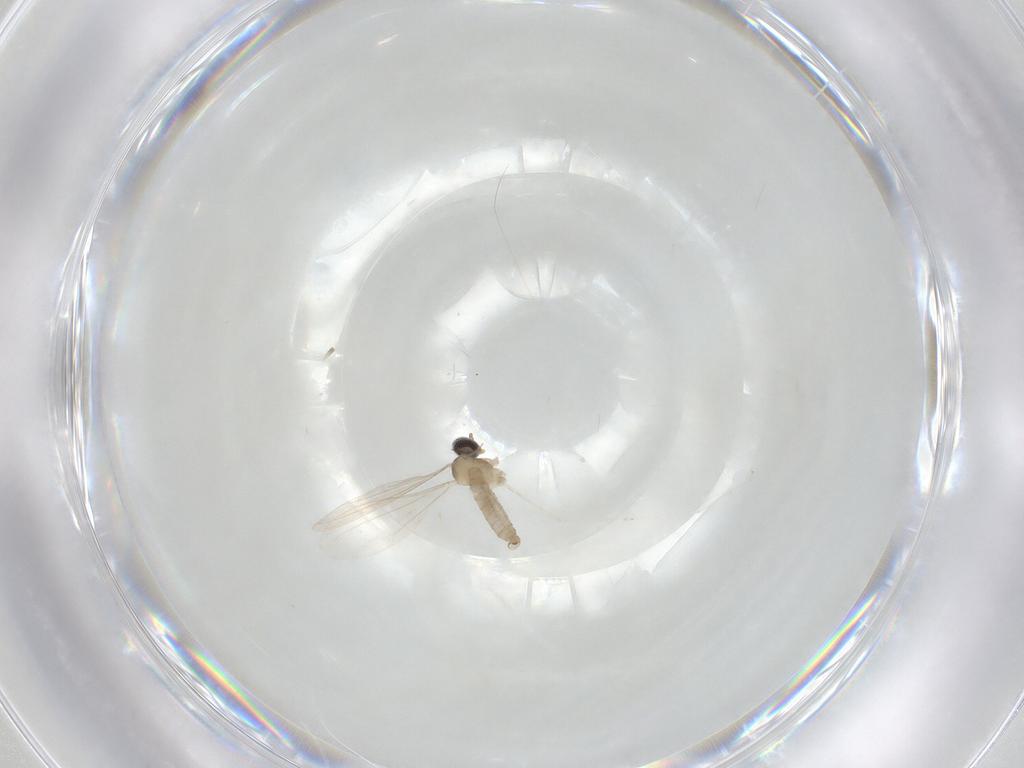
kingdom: Animalia
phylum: Arthropoda
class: Insecta
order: Diptera
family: Cecidomyiidae
